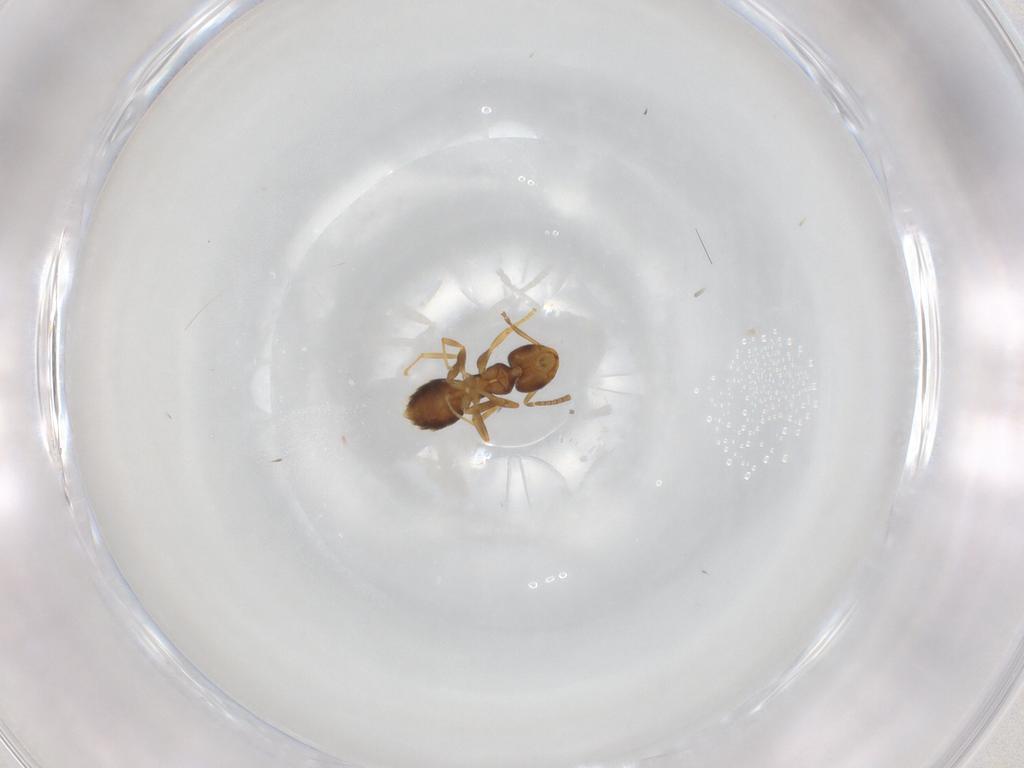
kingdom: Animalia
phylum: Arthropoda
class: Insecta
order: Hymenoptera
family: Formicidae
